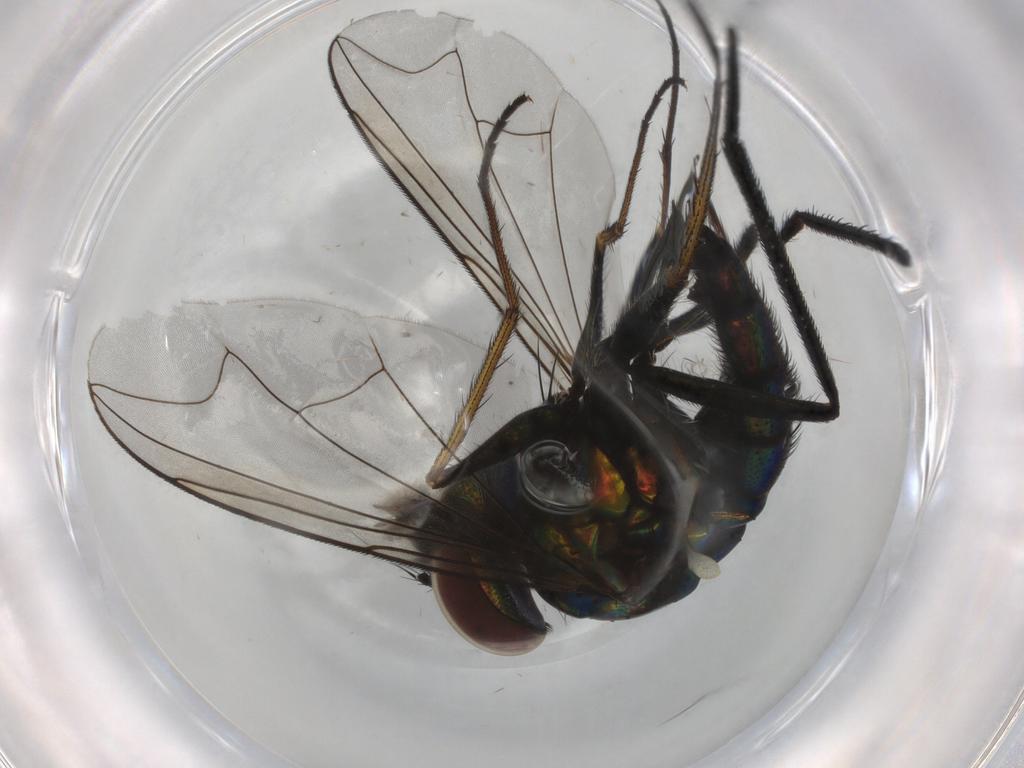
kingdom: Animalia
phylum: Arthropoda
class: Insecta
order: Diptera
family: Dolichopodidae
